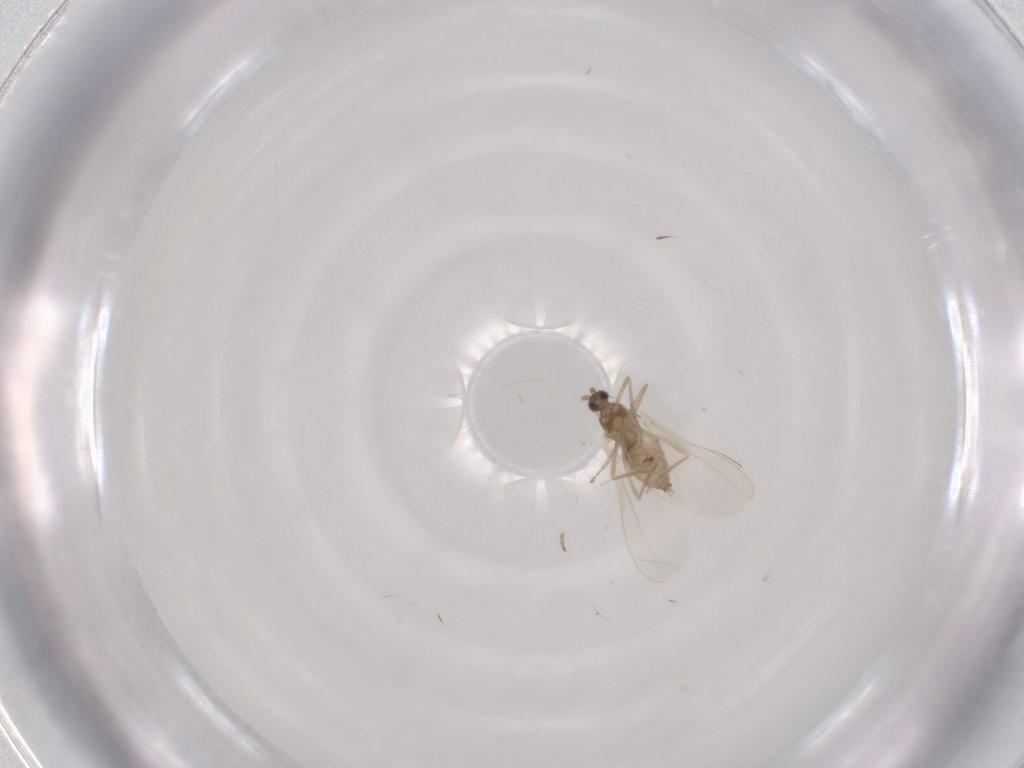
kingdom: Animalia
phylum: Arthropoda
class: Insecta
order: Diptera
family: Cecidomyiidae
